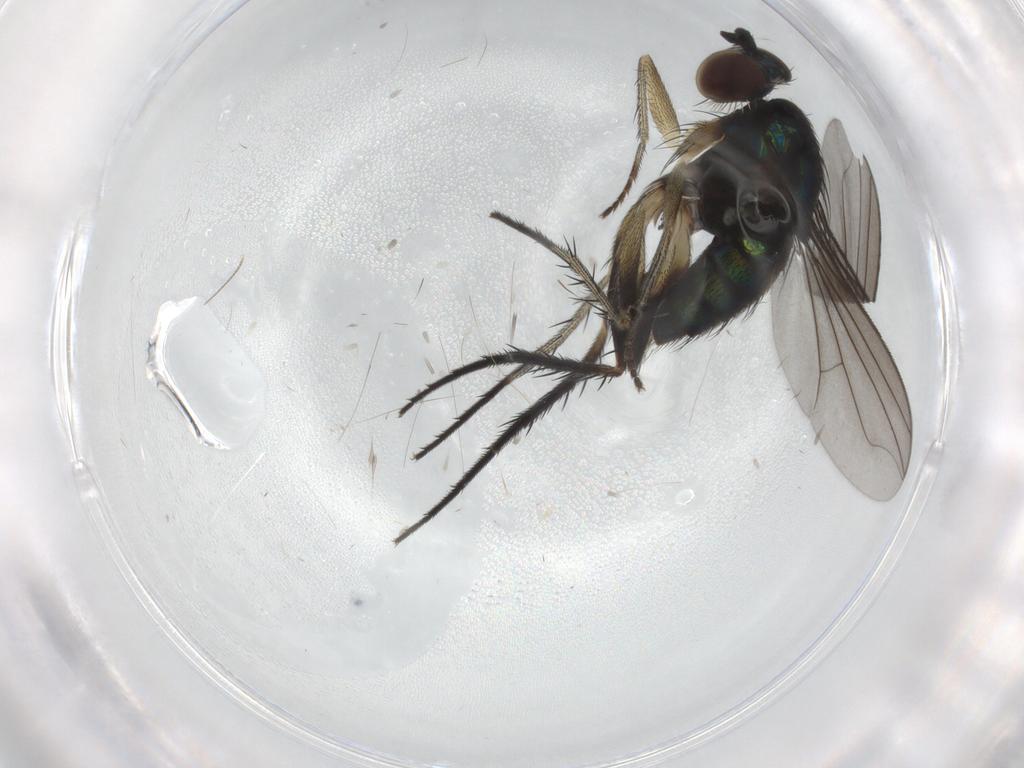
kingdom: Animalia
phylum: Arthropoda
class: Insecta
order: Diptera
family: Dolichopodidae
